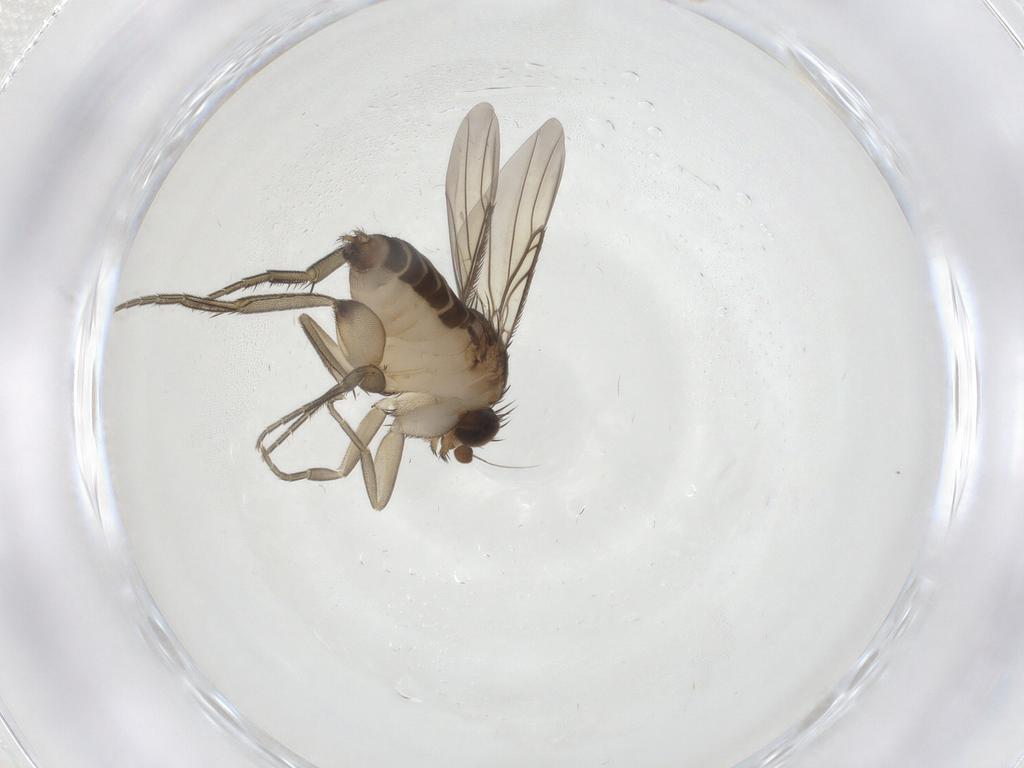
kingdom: Animalia
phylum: Arthropoda
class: Insecta
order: Diptera
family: Phoridae
